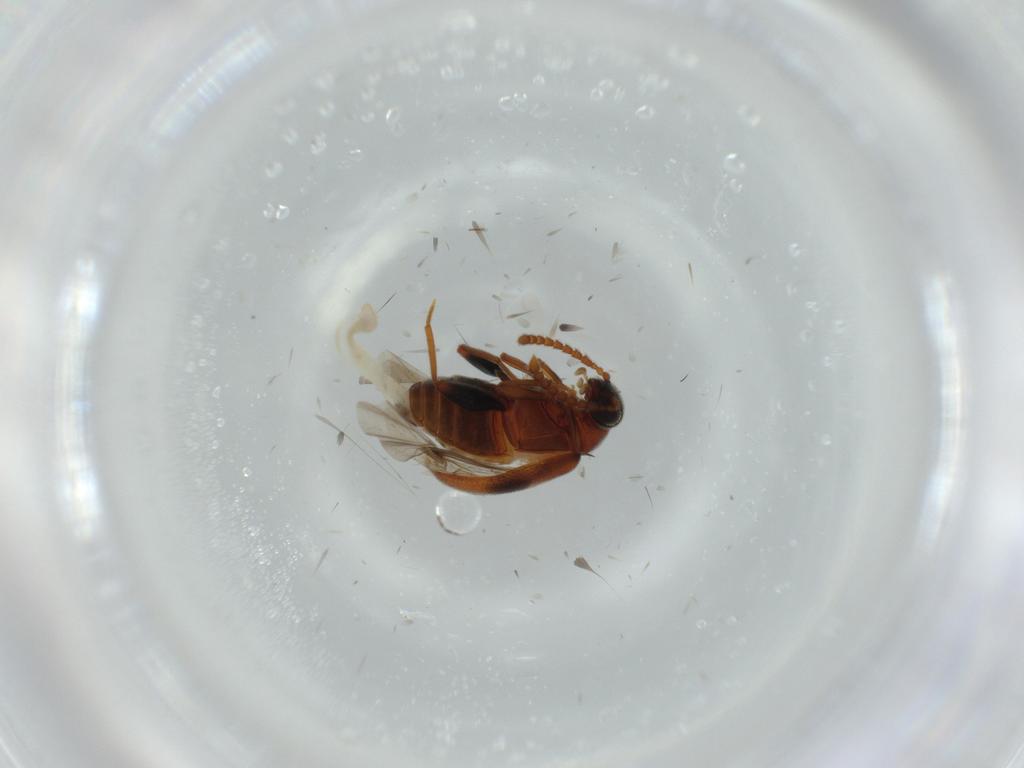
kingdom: Animalia
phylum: Arthropoda
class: Insecta
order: Coleoptera
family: Aderidae
